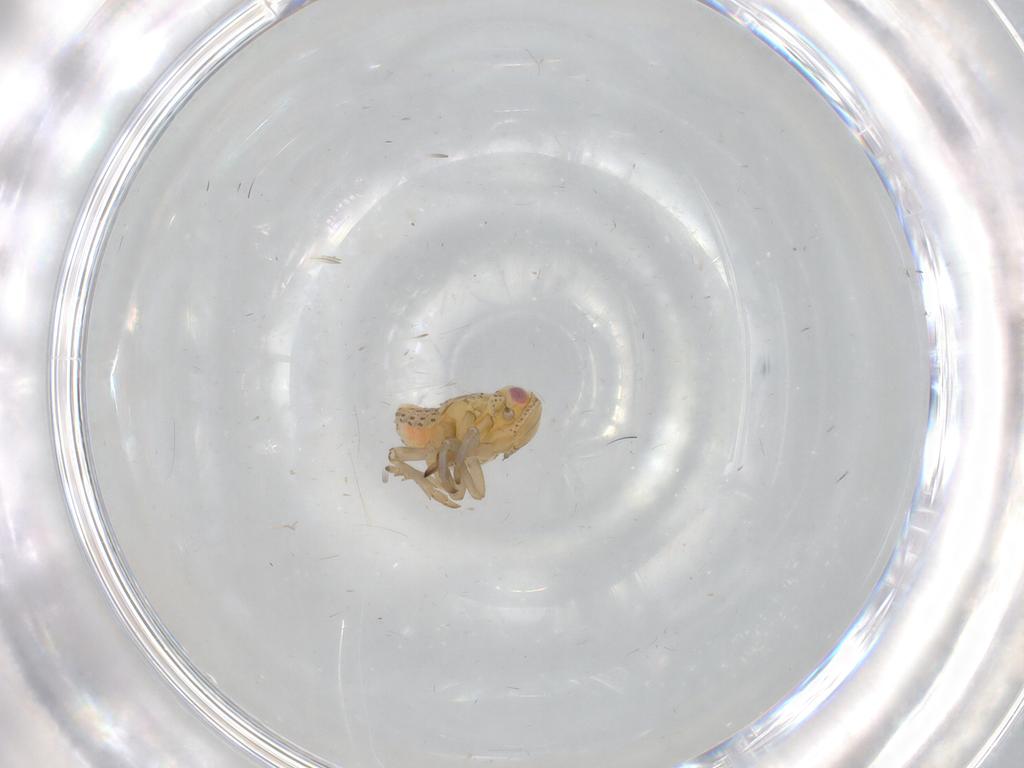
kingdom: Animalia
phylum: Arthropoda
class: Insecta
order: Hemiptera
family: Tropiduchidae
